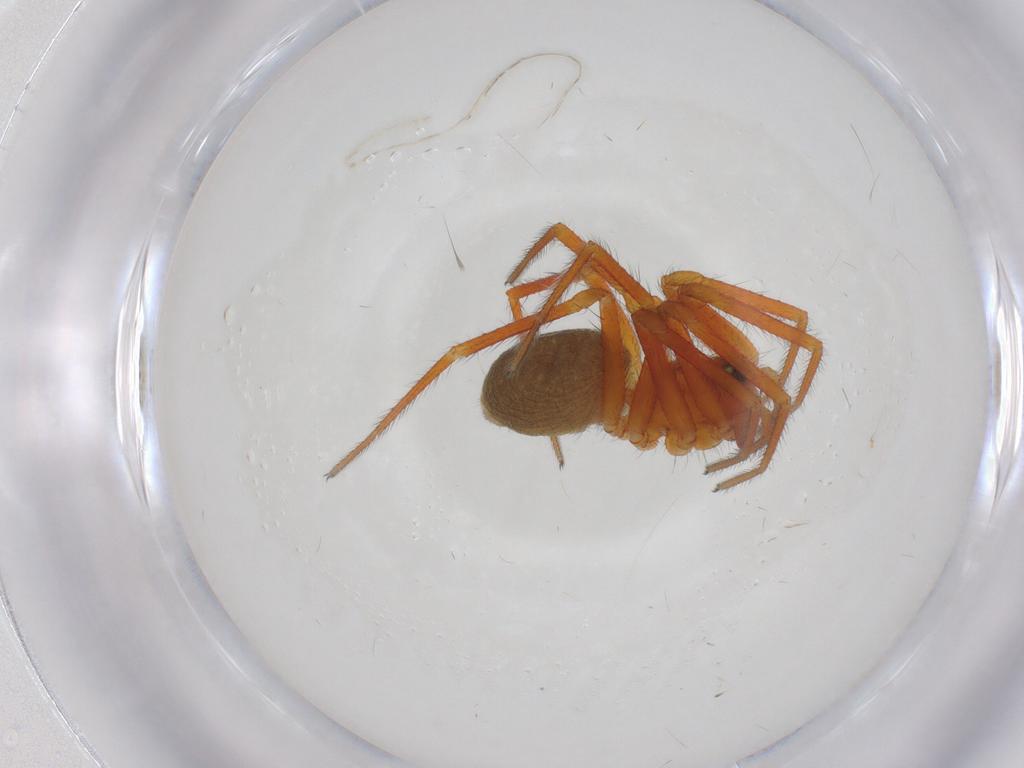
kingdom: Animalia
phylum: Arthropoda
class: Arachnida
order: Araneae
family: Linyphiidae
